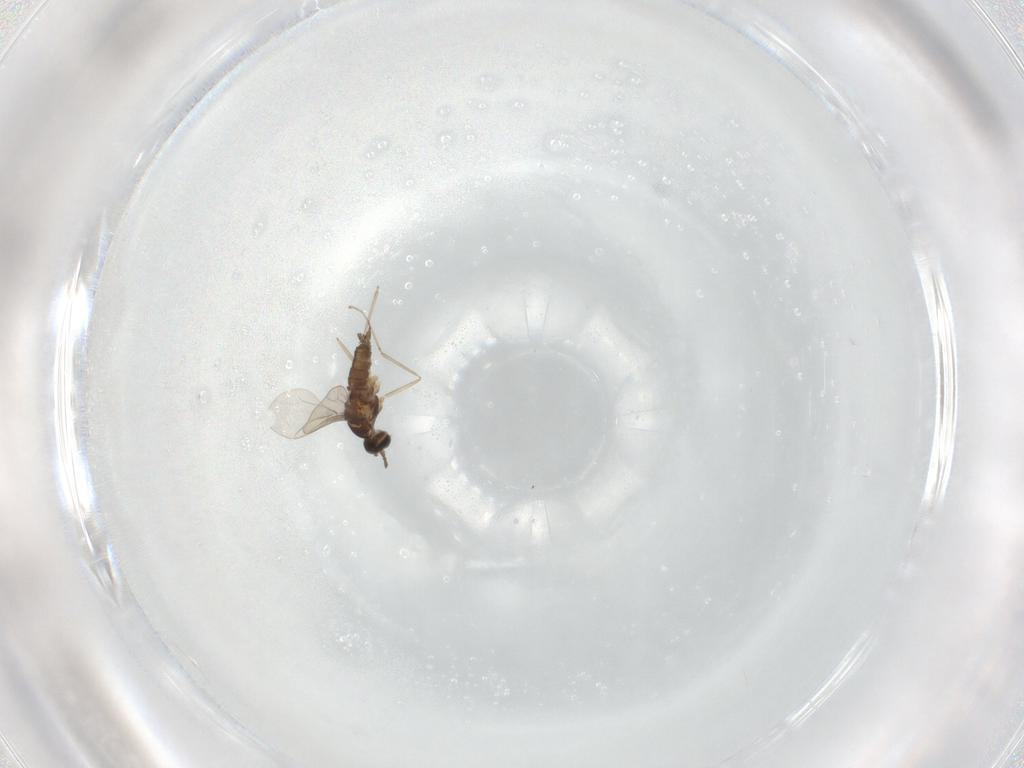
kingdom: Animalia
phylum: Arthropoda
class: Insecta
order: Diptera
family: Cecidomyiidae
